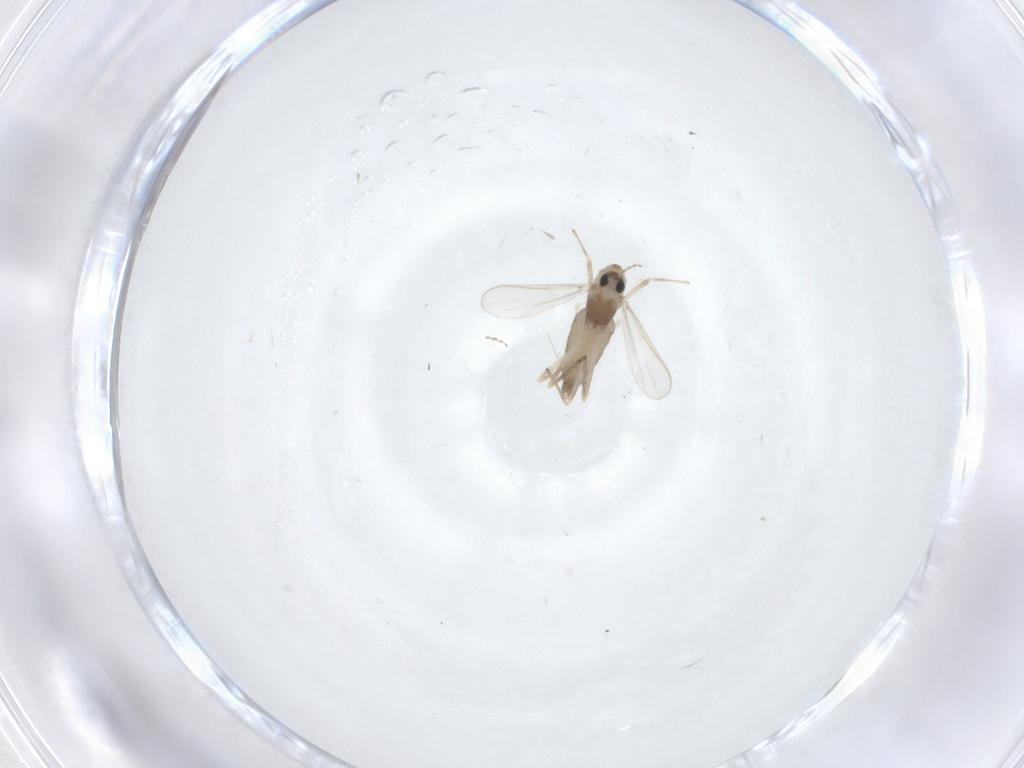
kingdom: Animalia
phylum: Arthropoda
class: Insecta
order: Diptera
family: Chironomidae
